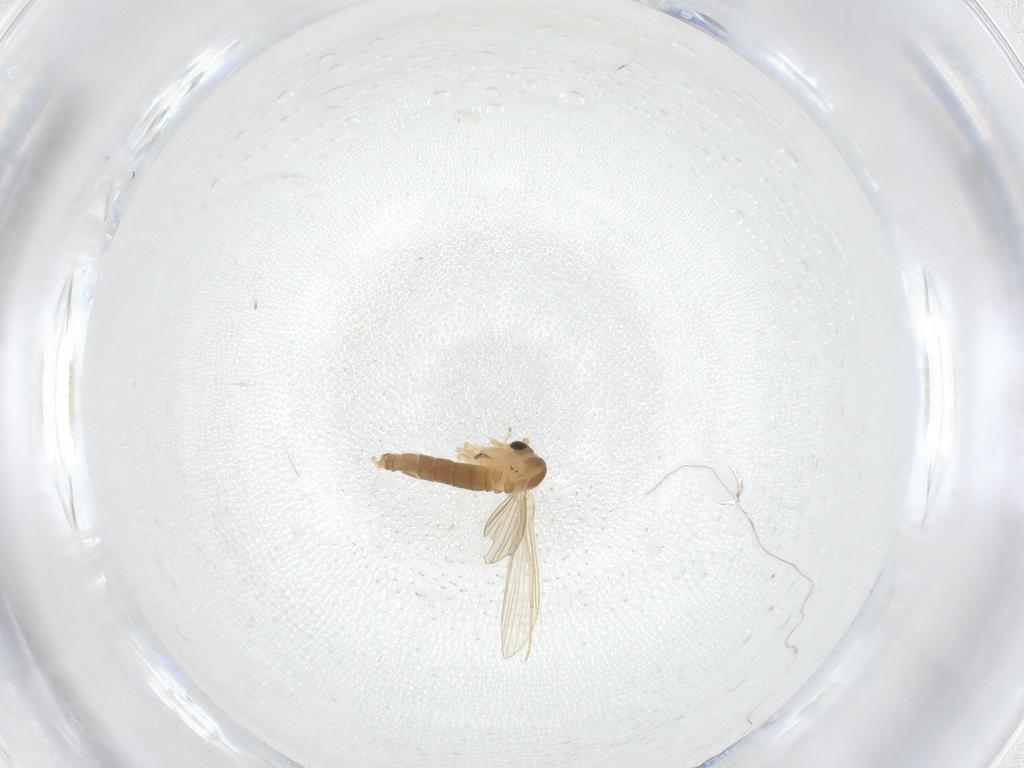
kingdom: Animalia
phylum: Arthropoda
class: Insecta
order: Diptera
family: Psychodidae
